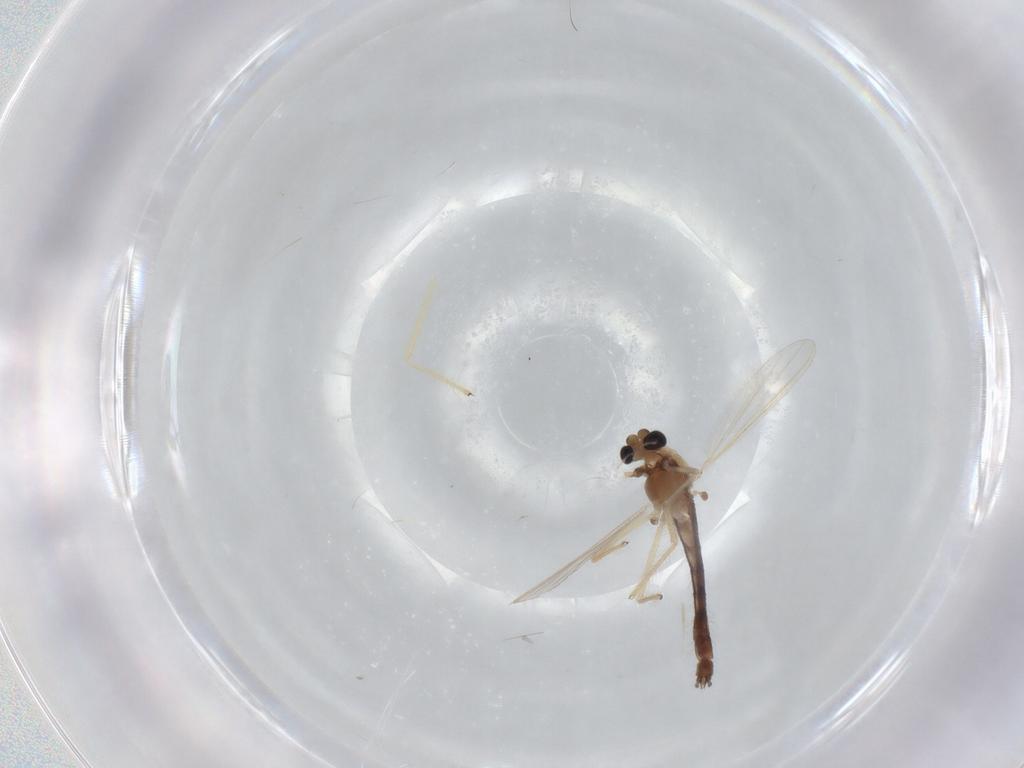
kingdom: Animalia
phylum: Arthropoda
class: Insecta
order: Diptera
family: Chironomidae
